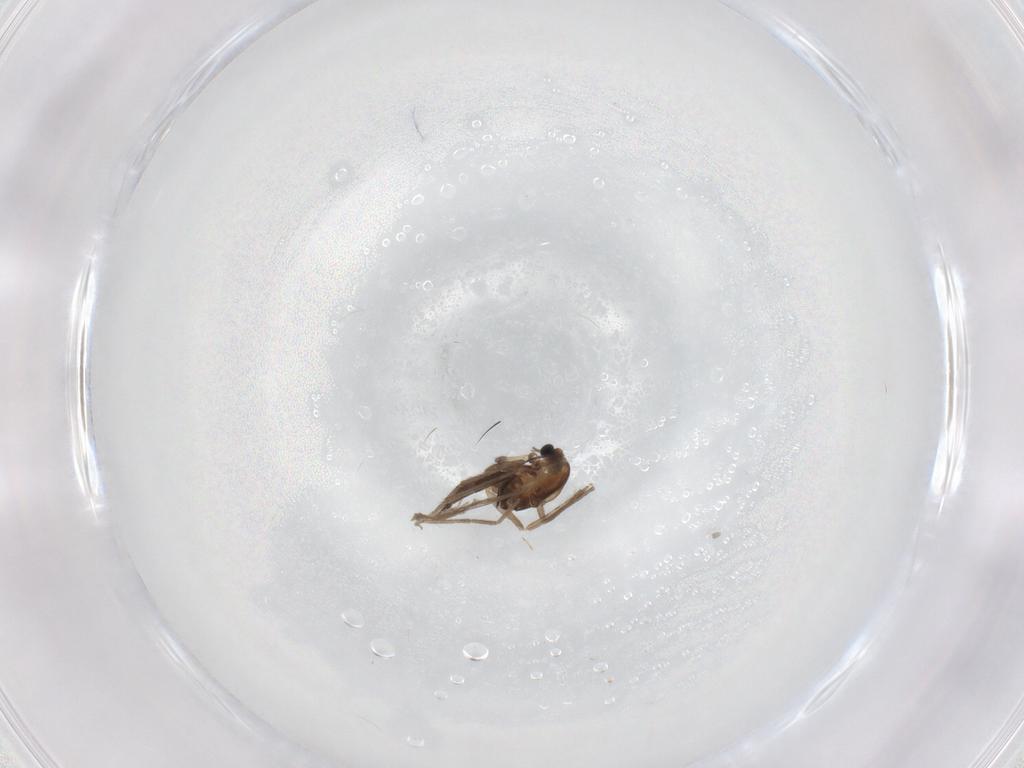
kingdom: Animalia
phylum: Arthropoda
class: Insecta
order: Diptera
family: Chironomidae
